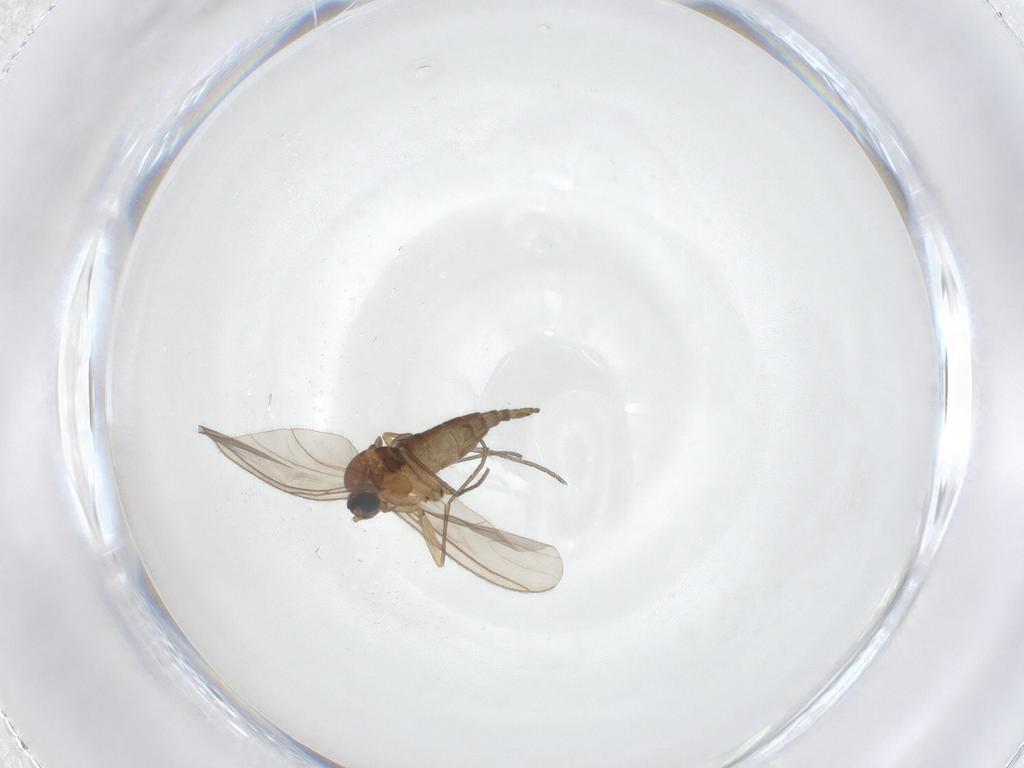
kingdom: Animalia
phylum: Arthropoda
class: Insecta
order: Diptera
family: Sciaridae
